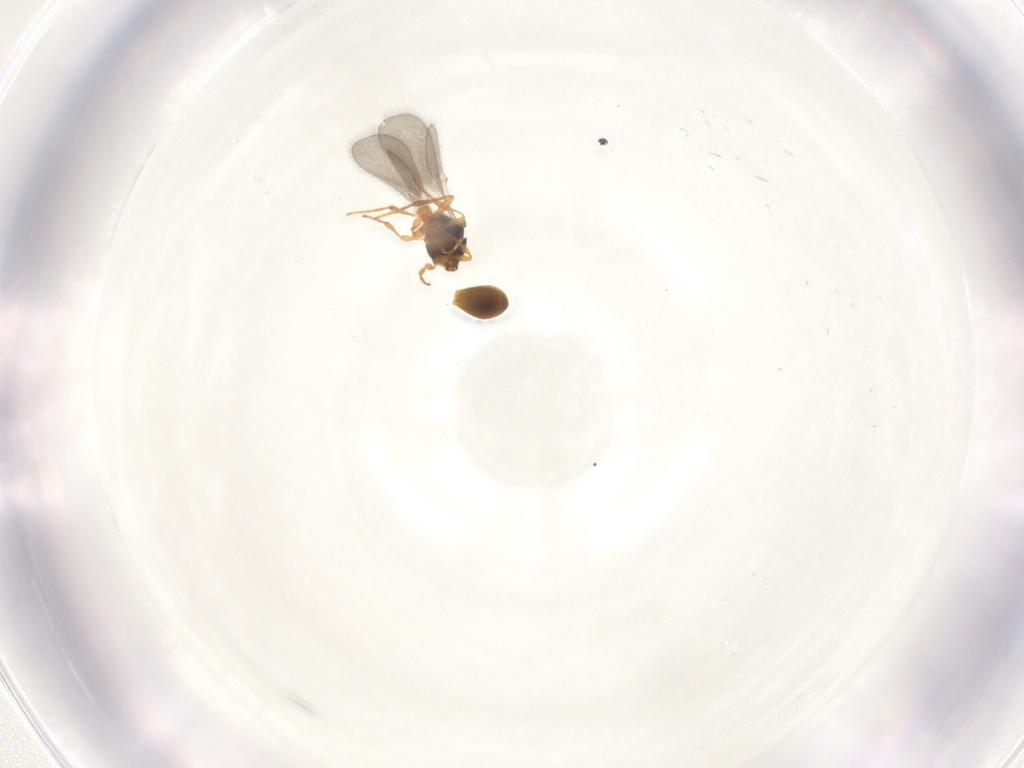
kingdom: Animalia
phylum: Arthropoda
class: Insecta
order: Hymenoptera
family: Platygastridae
